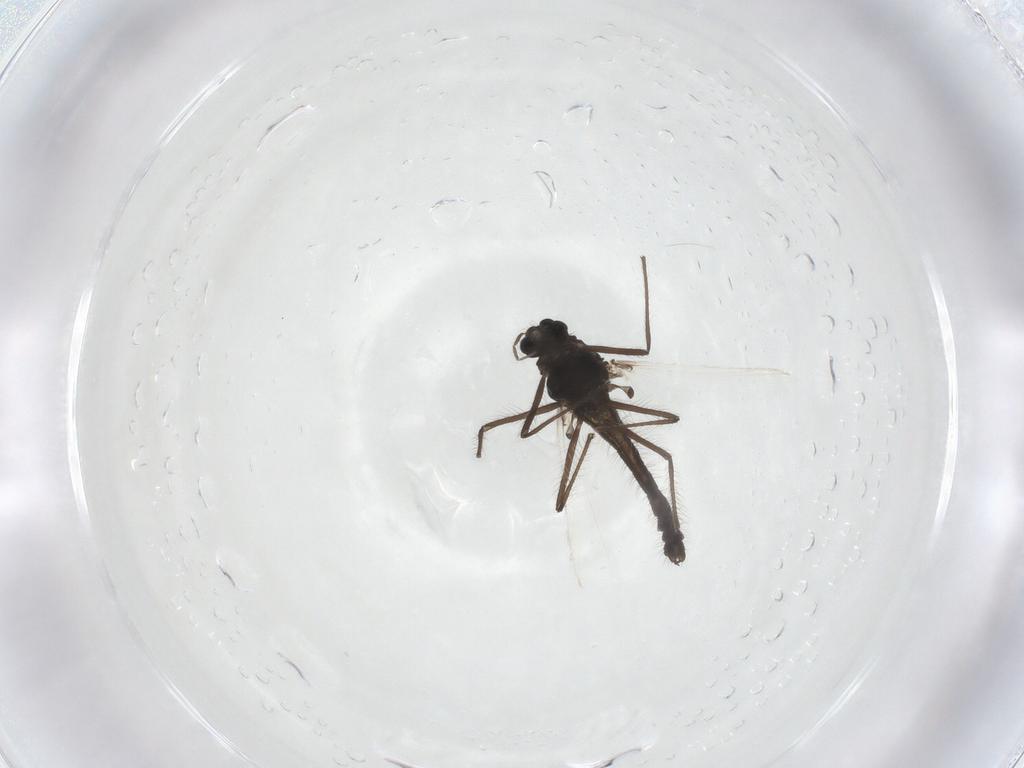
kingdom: Animalia
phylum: Arthropoda
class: Insecta
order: Diptera
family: Chironomidae
